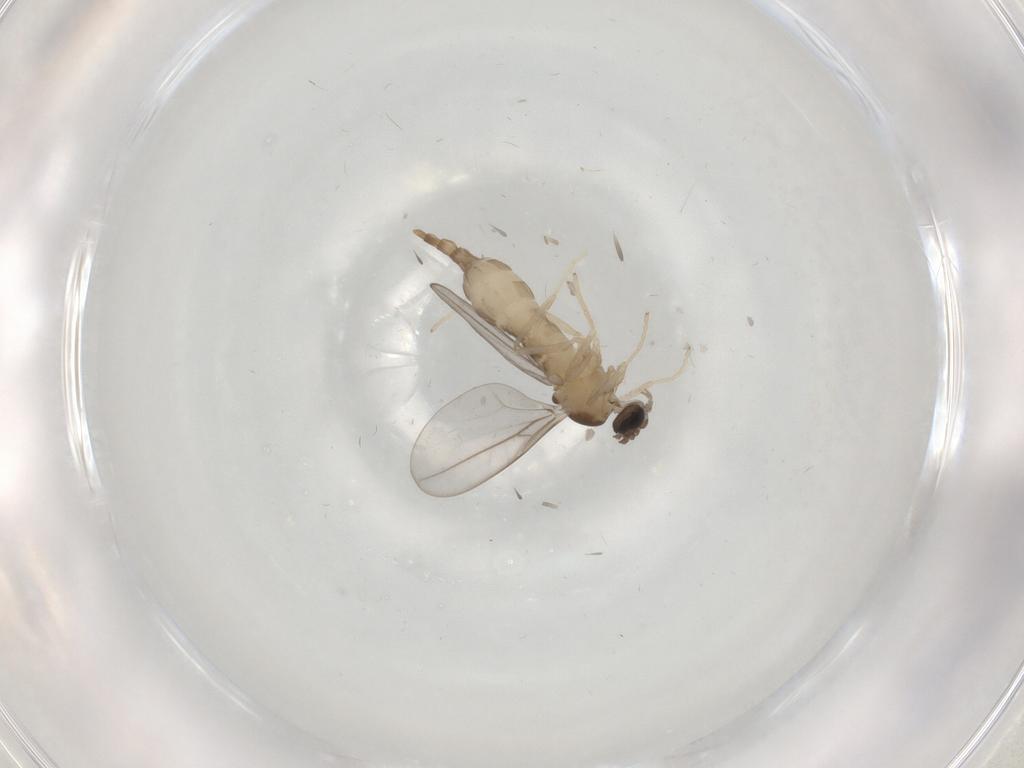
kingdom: Animalia
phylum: Arthropoda
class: Insecta
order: Diptera
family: Cecidomyiidae
